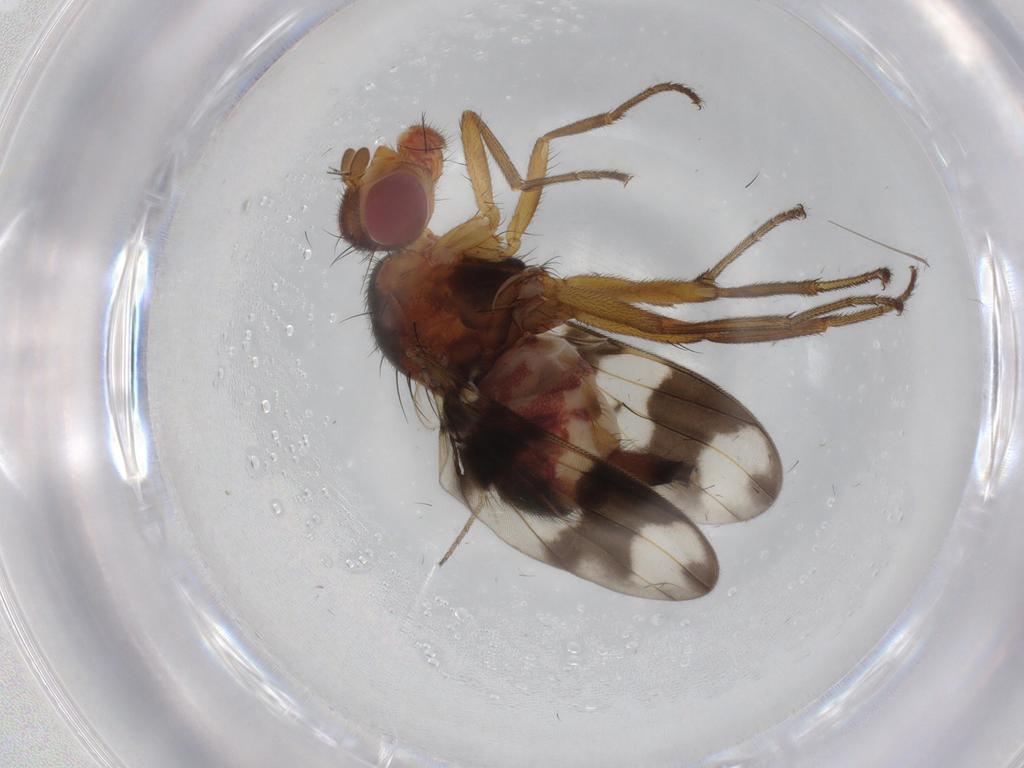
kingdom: Animalia
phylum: Arthropoda
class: Insecta
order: Diptera
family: Richardiidae
